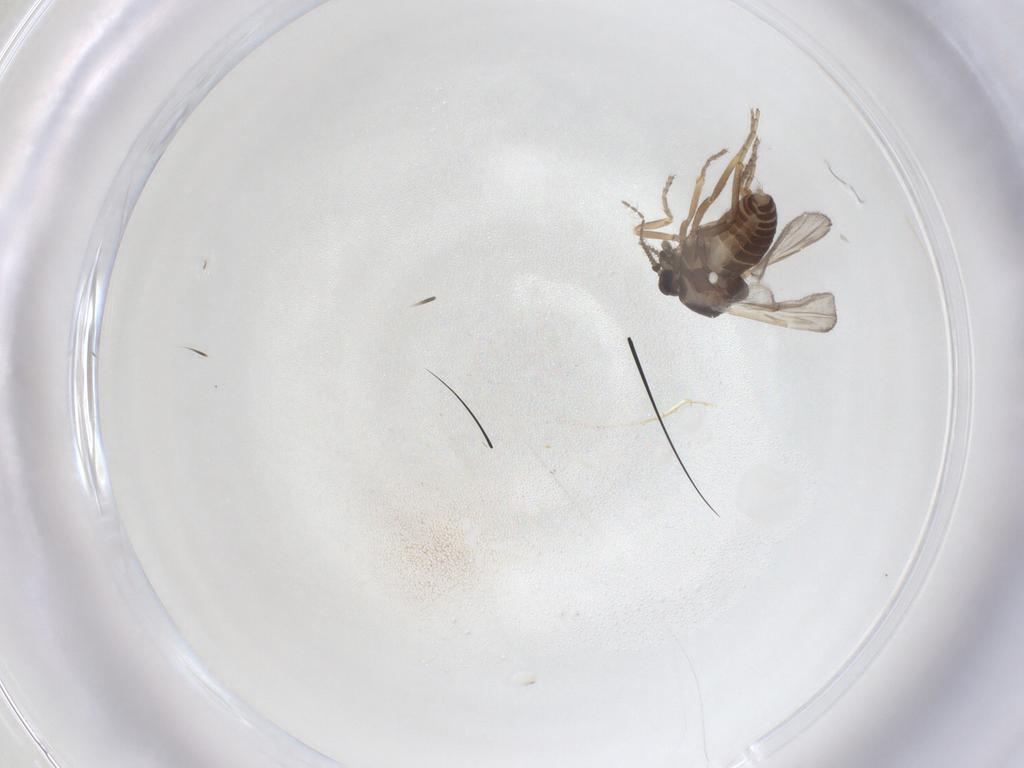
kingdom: Animalia
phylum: Arthropoda
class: Insecta
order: Diptera
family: Ceratopogonidae
